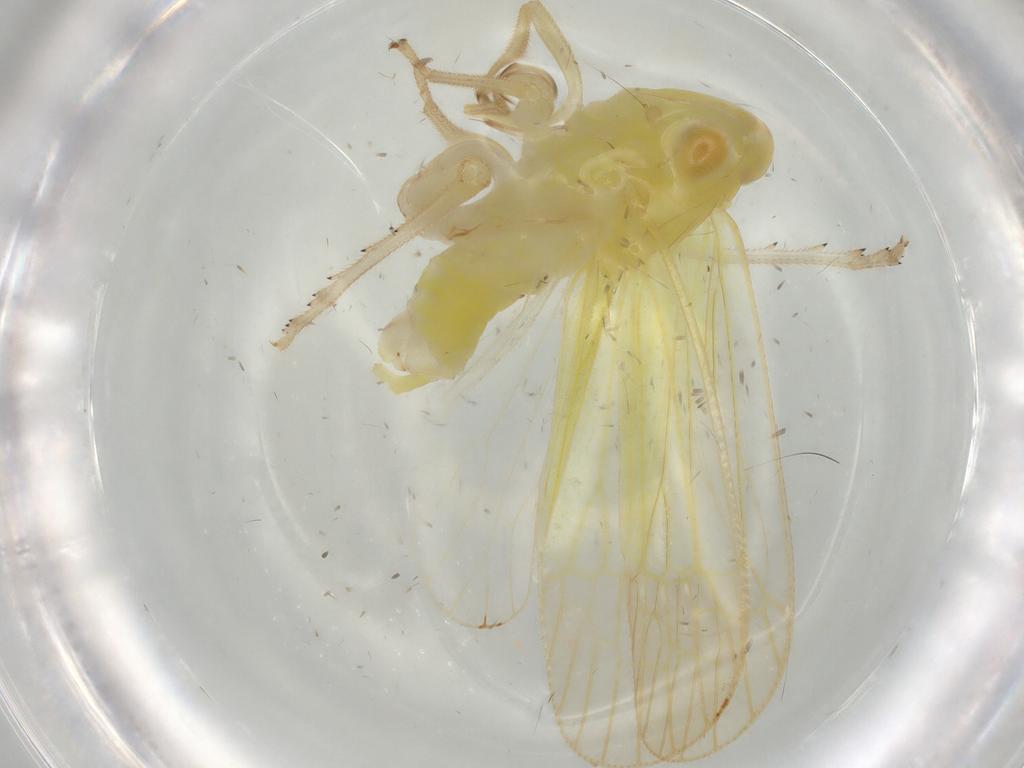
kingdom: Animalia
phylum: Arthropoda
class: Insecta
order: Hemiptera
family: Tropiduchidae
